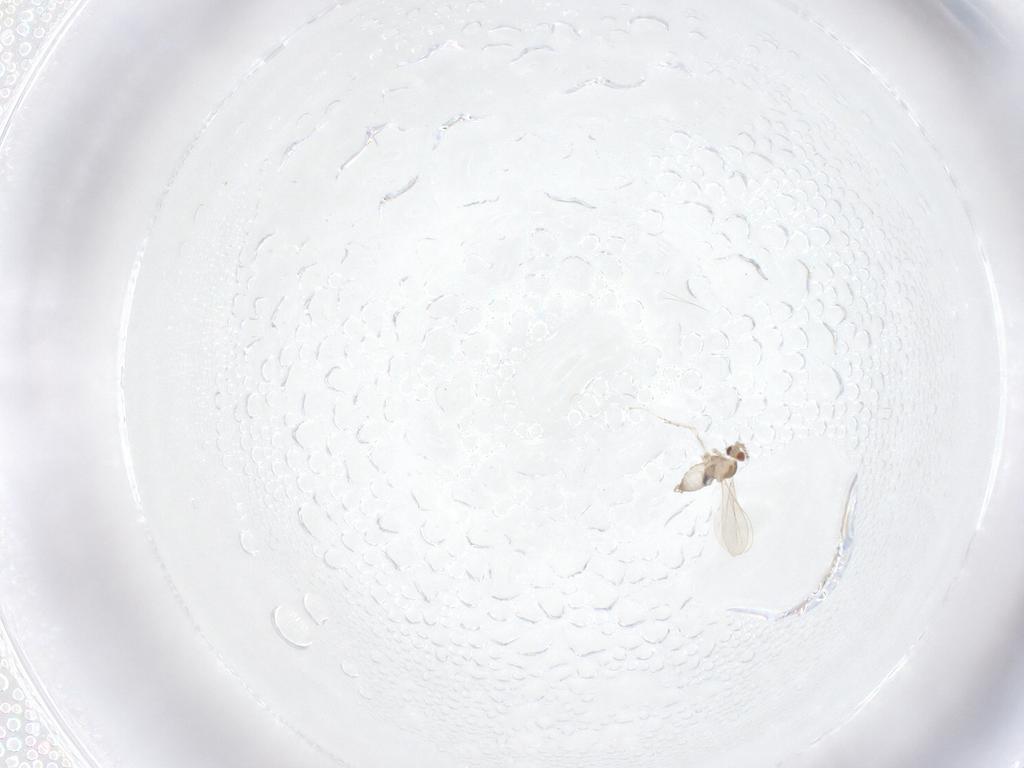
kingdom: Animalia
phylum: Arthropoda
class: Insecta
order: Diptera
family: Cecidomyiidae
